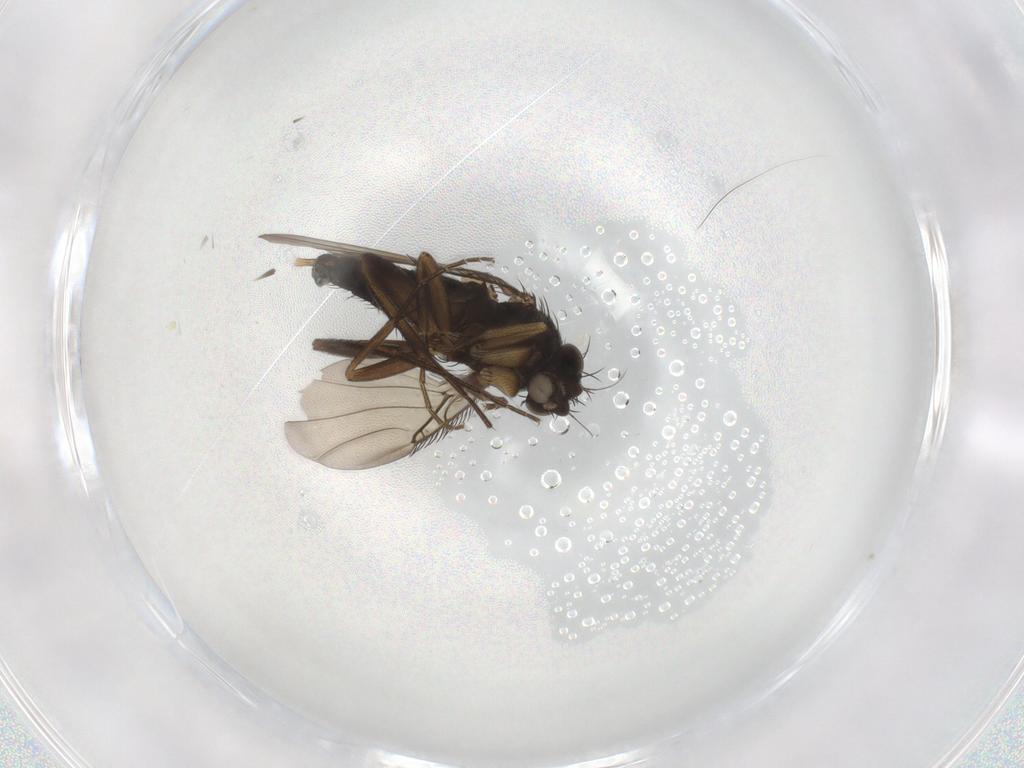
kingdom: Animalia
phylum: Arthropoda
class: Insecta
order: Diptera
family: Phoridae
